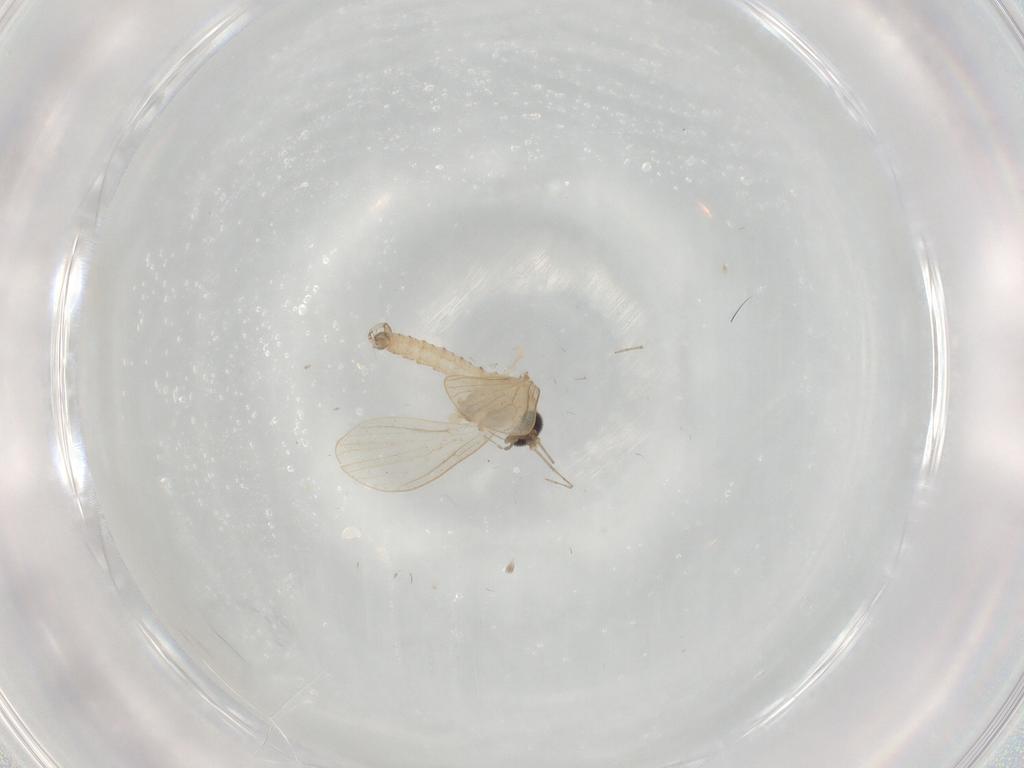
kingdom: Animalia
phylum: Arthropoda
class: Insecta
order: Diptera
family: Psychodidae
